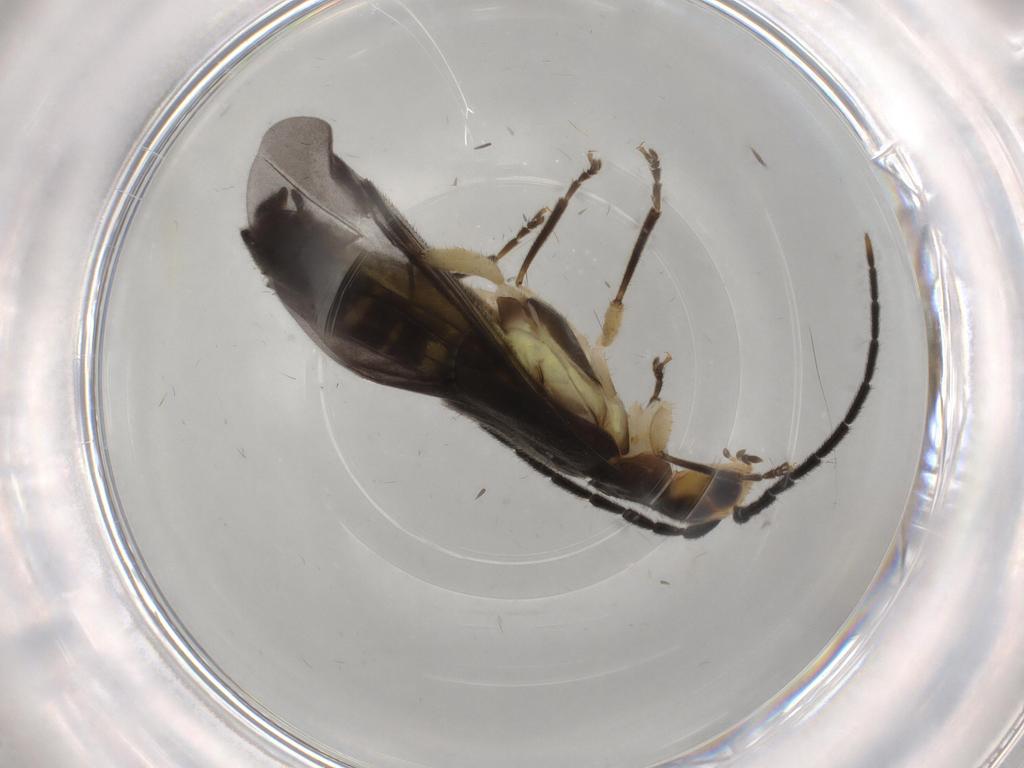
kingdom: Animalia
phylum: Arthropoda
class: Insecta
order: Coleoptera
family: Cantharidae
